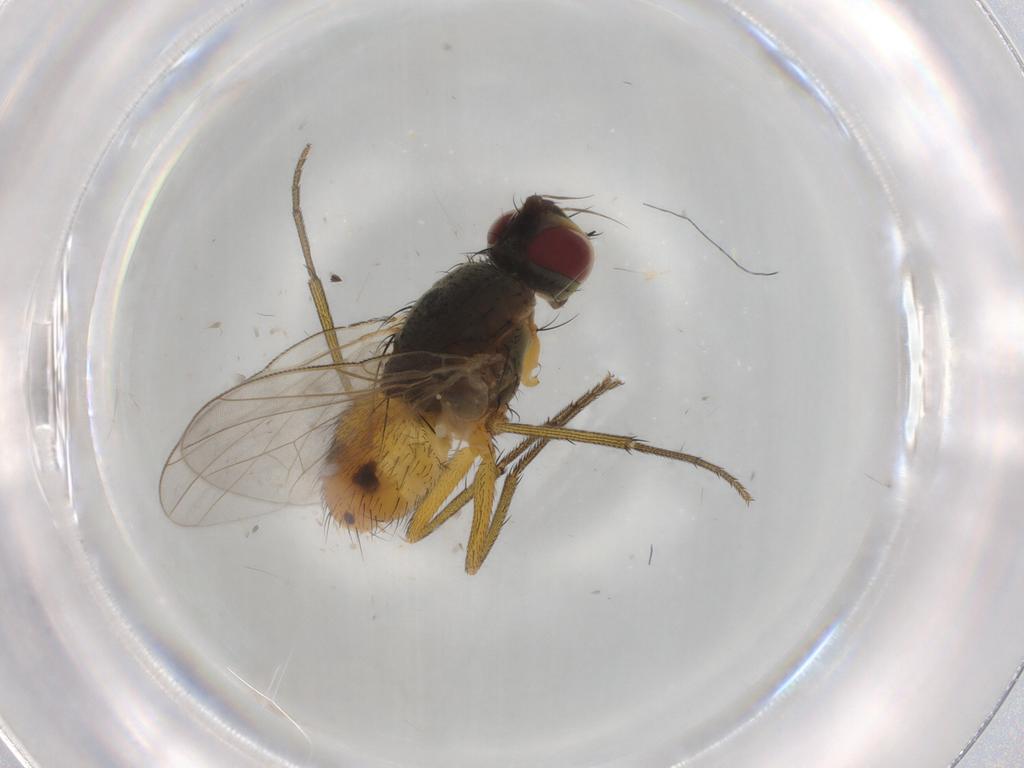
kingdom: Animalia
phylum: Arthropoda
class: Insecta
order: Diptera
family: Muscidae
